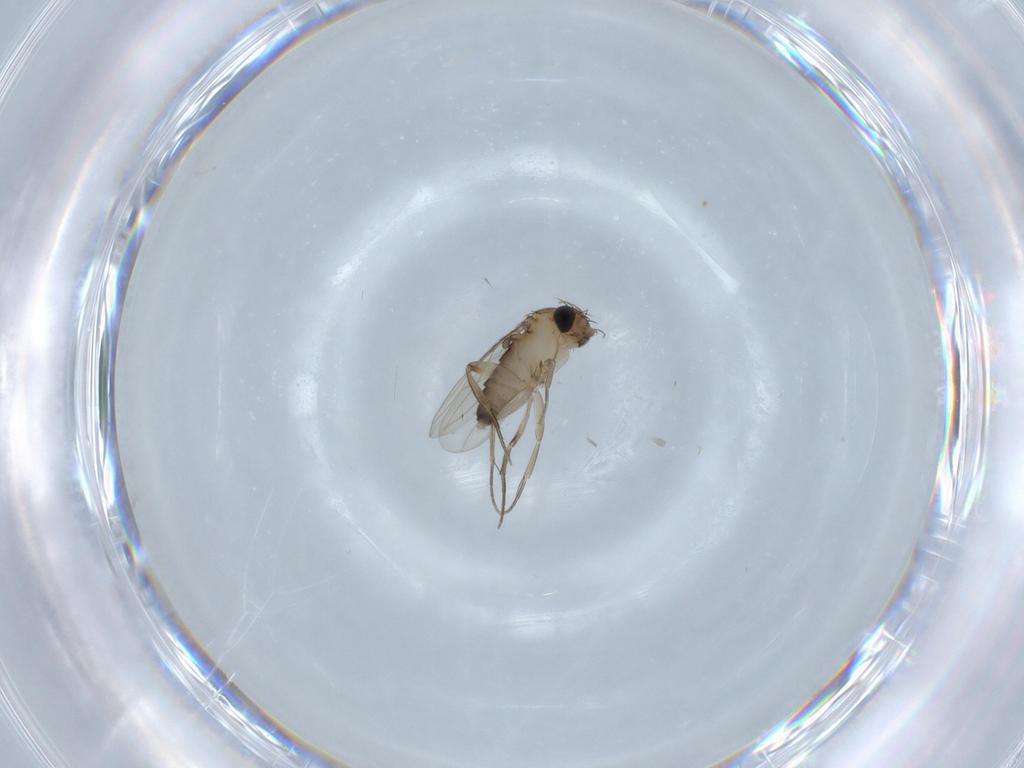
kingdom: Animalia
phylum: Arthropoda
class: Insecta
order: Diptera
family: Phoridae
